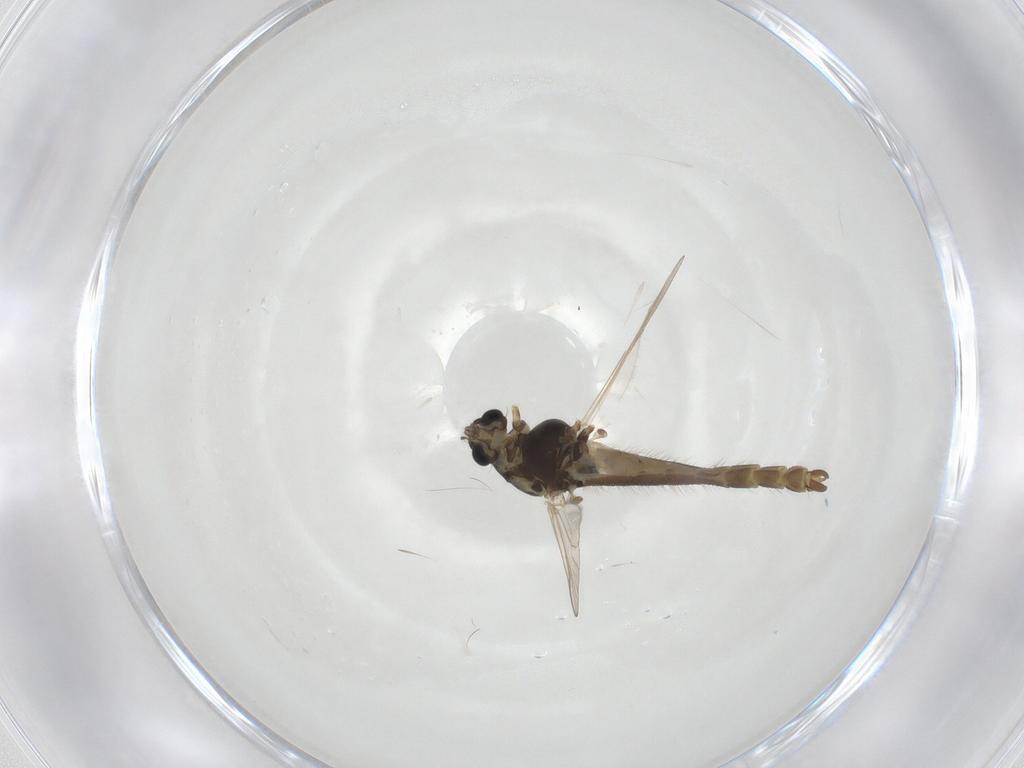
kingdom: Animalia
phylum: Arthropoda
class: Insecta
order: Diptera
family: Chironomidae
